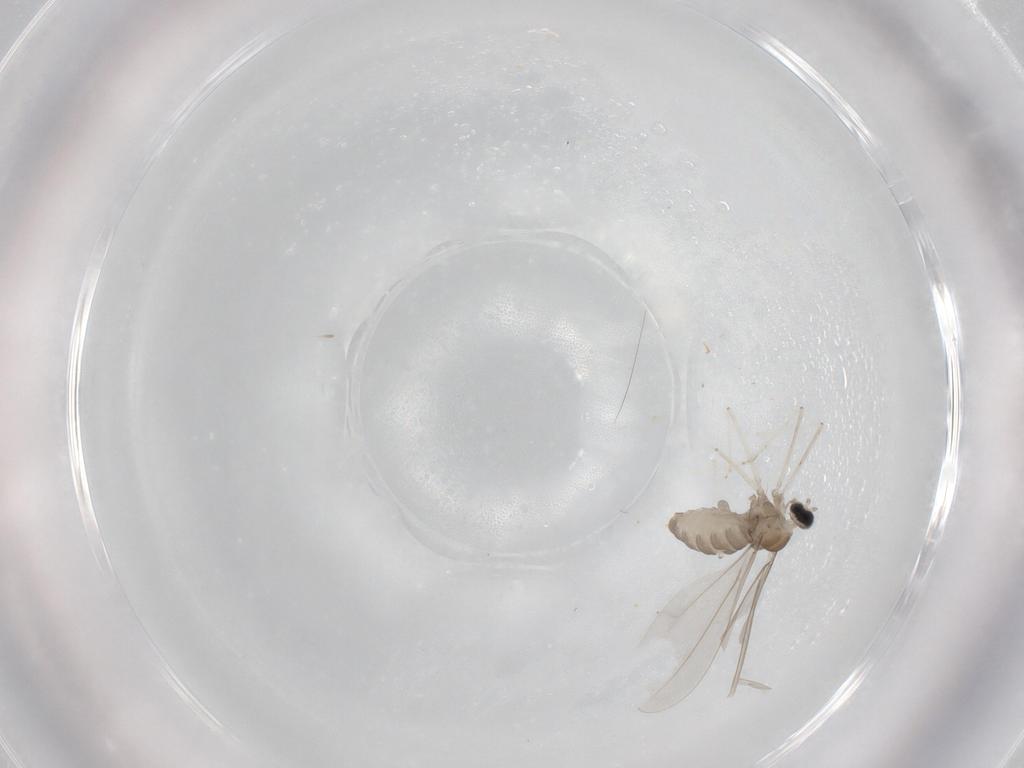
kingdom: Animalia
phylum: Arthropoda
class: Insecta
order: Diptera
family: Cecidomyiidae
